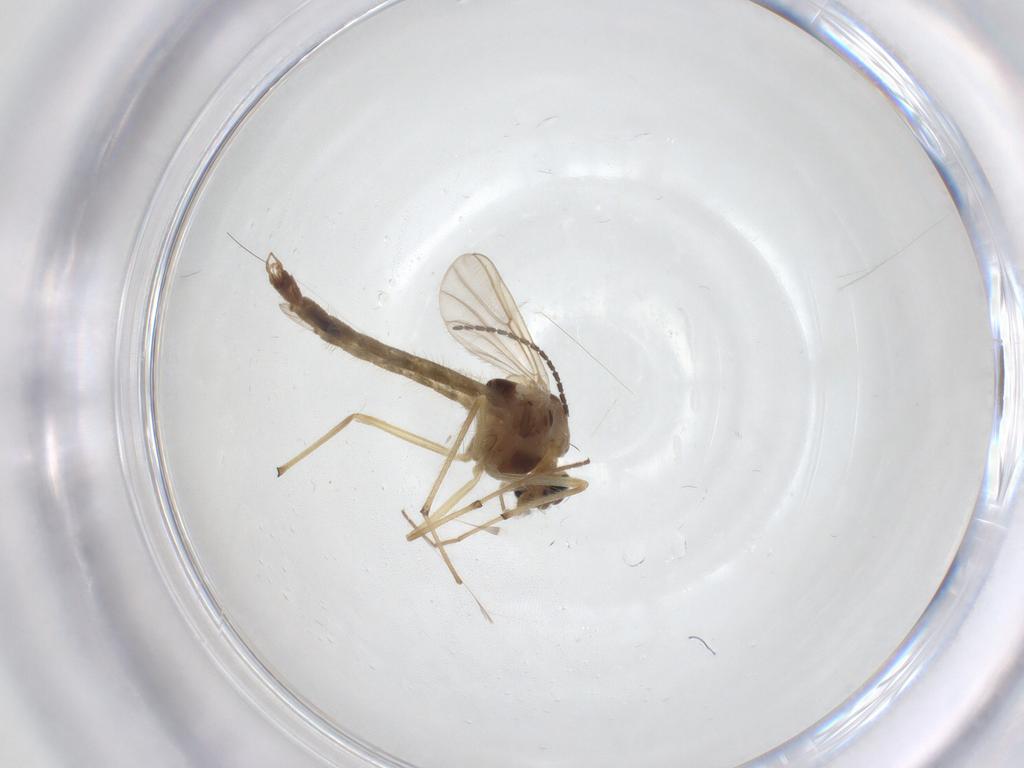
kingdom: Animalia
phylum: Arthropoda
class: Insecta
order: Diptera
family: Chironomidae
